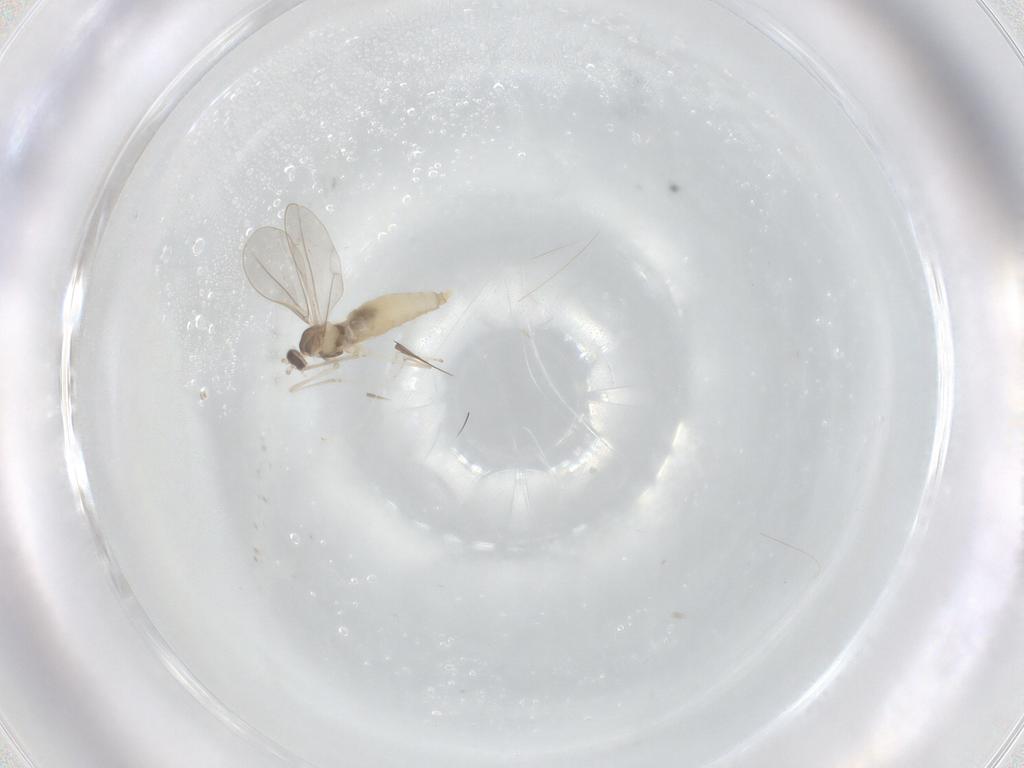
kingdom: Animalia
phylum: Arthropoda
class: Insecta
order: Diptera
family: Cecidomyiidae
